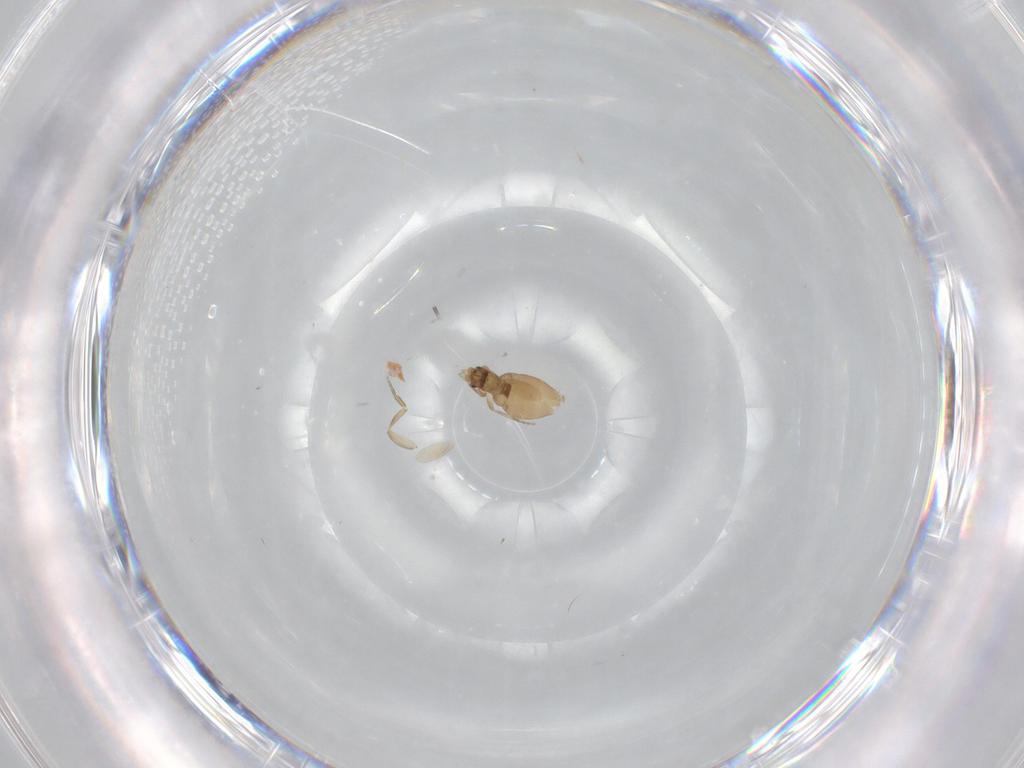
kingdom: Animalia
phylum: Arthropoda
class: Insecta
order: Diptera
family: Phoridae
